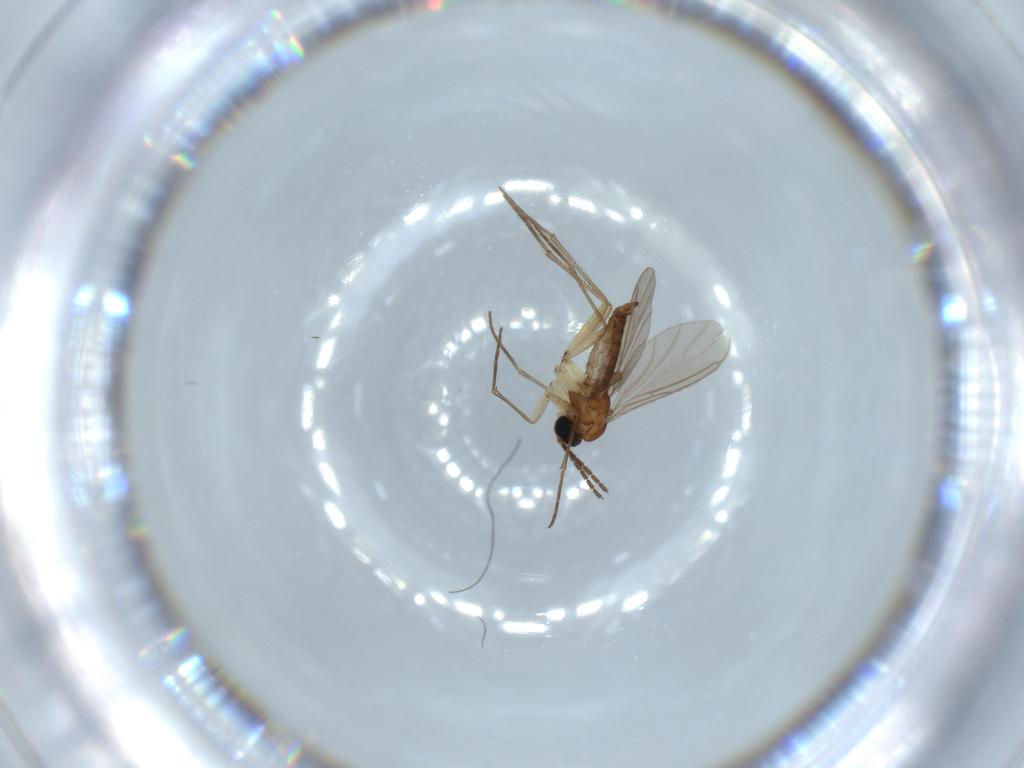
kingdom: Animalia
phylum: Arthropoda
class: Insecta
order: Diptera
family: Sciaridae
